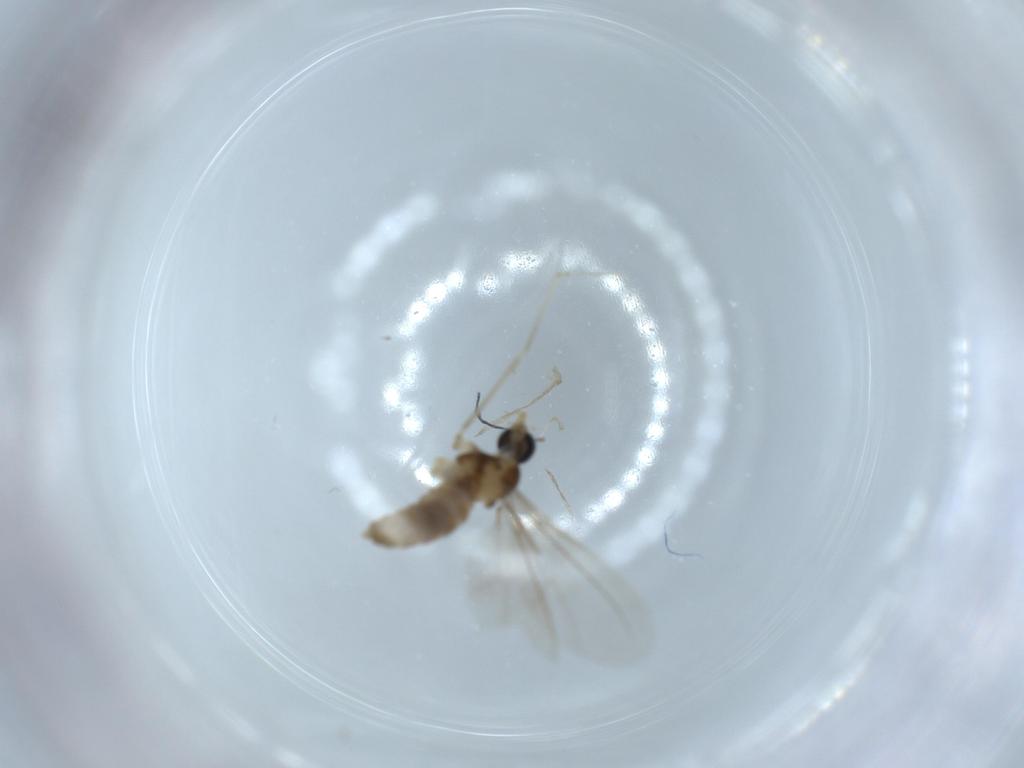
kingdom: Animalia
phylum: Arthropoda
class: Insecta
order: Diptera
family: Cecidomyiidae
